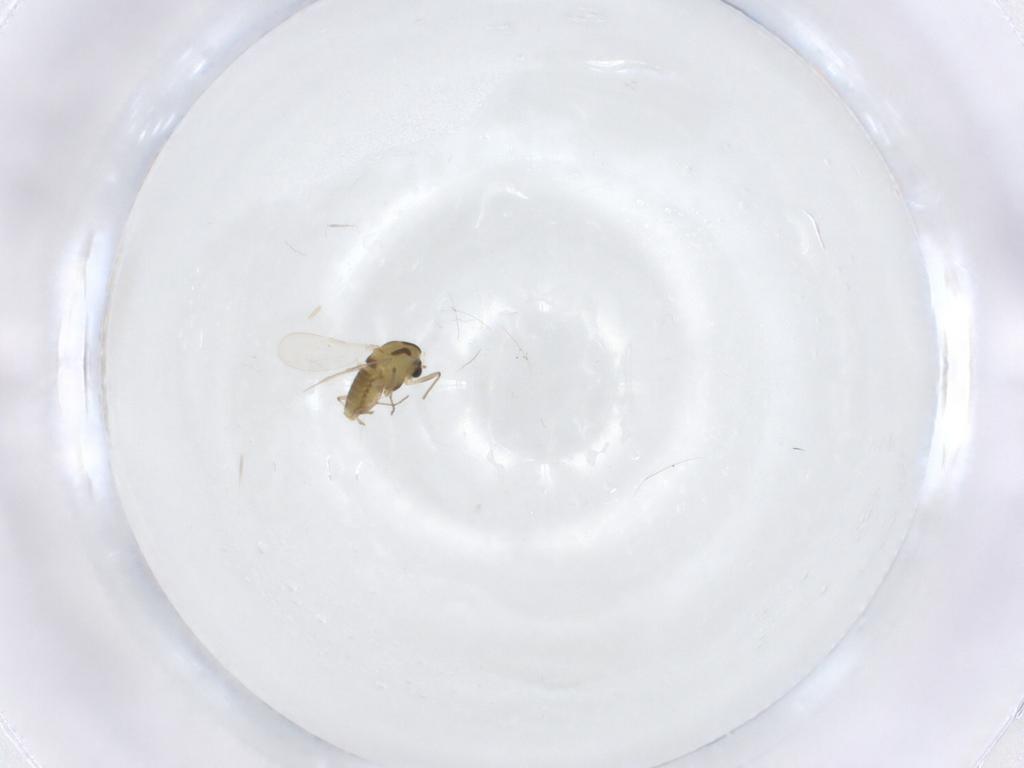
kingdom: Animalia
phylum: Arthropoda
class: Insecta
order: Diptera
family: Chironomidae
